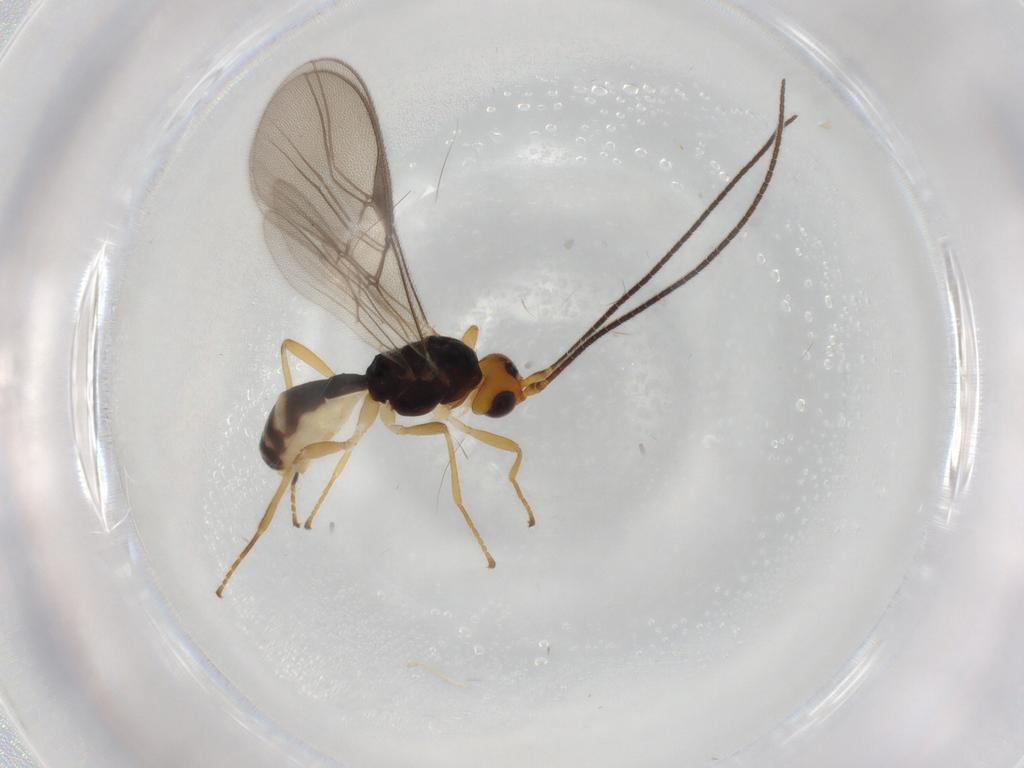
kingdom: Animalia
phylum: Arthropoda
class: Insecta
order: Hymenoptera
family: Braconidae
